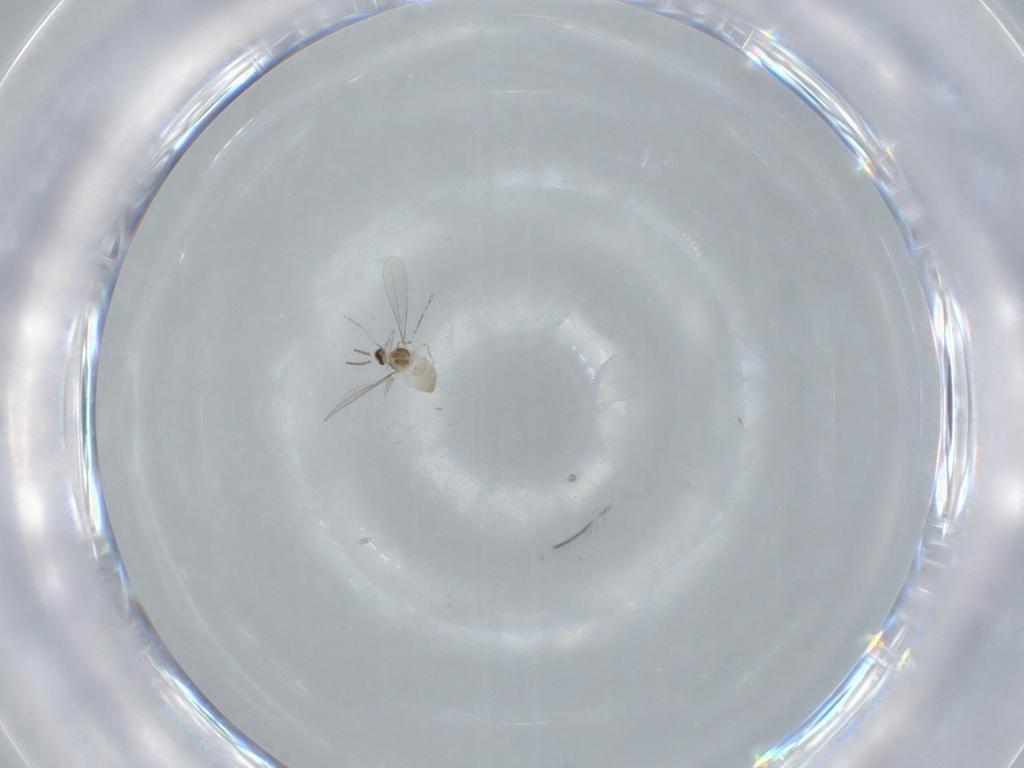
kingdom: Animalia
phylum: Arthropoda
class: Insecta
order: Diptera
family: Cecidomyiidae
